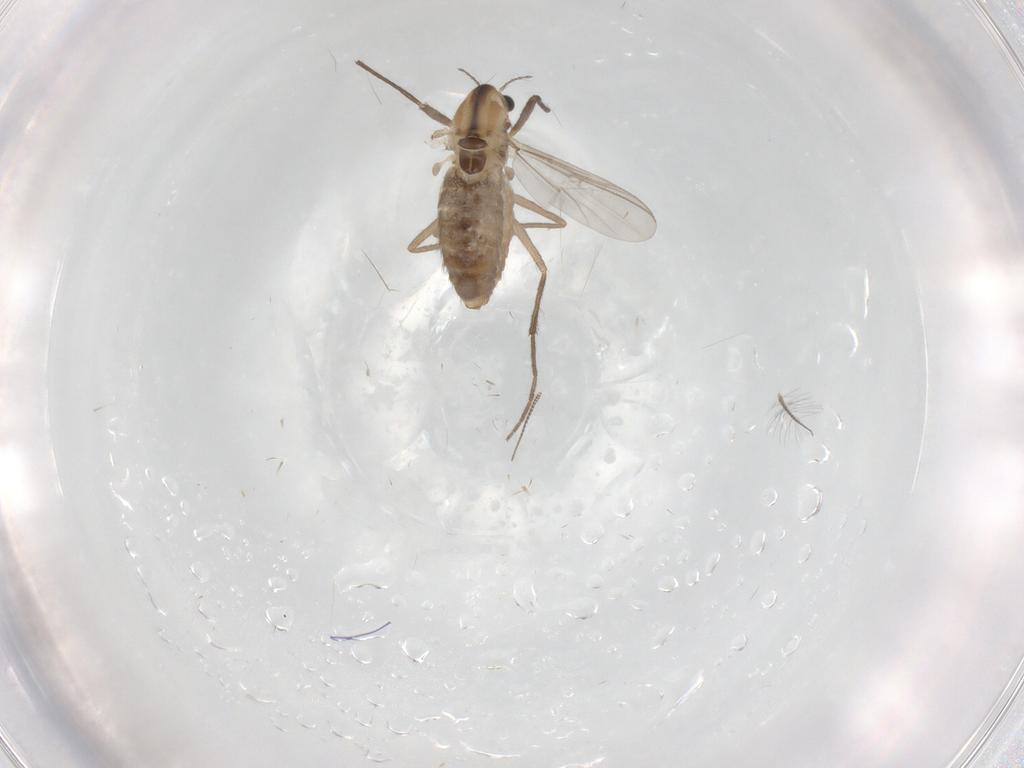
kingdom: Animalia
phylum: Arthropoda
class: Insecta
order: Diptera
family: Chironomidae
